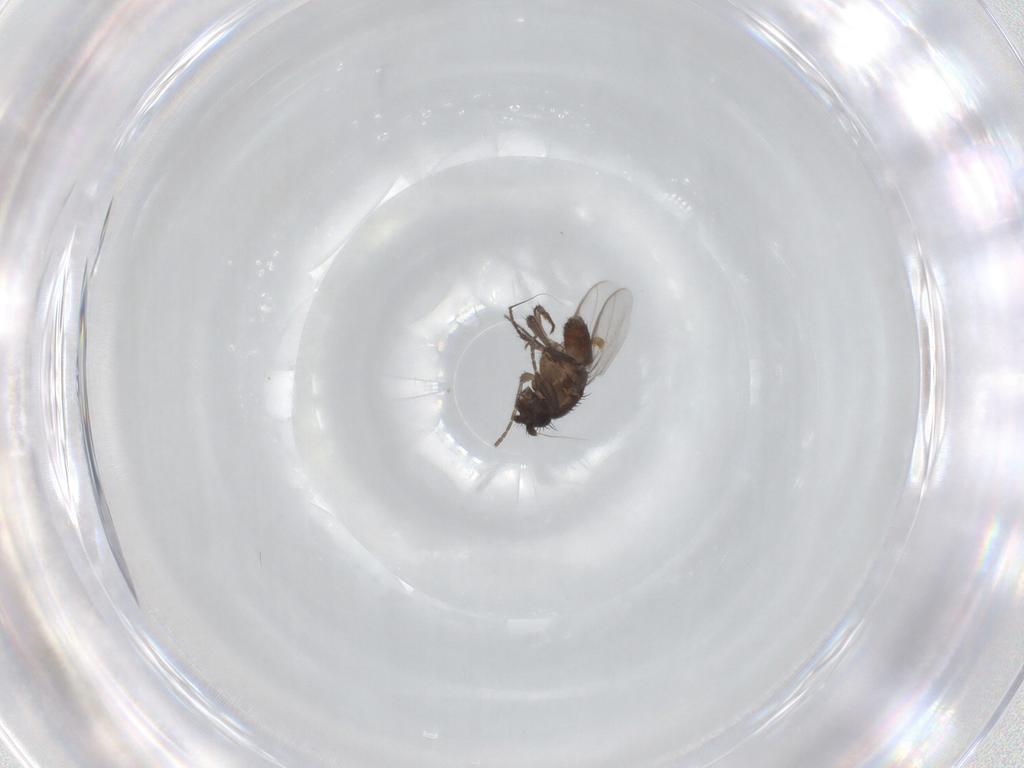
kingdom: Animalia
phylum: Arthropoda
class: Insecta
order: Diptera
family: Sphaeroceridae
